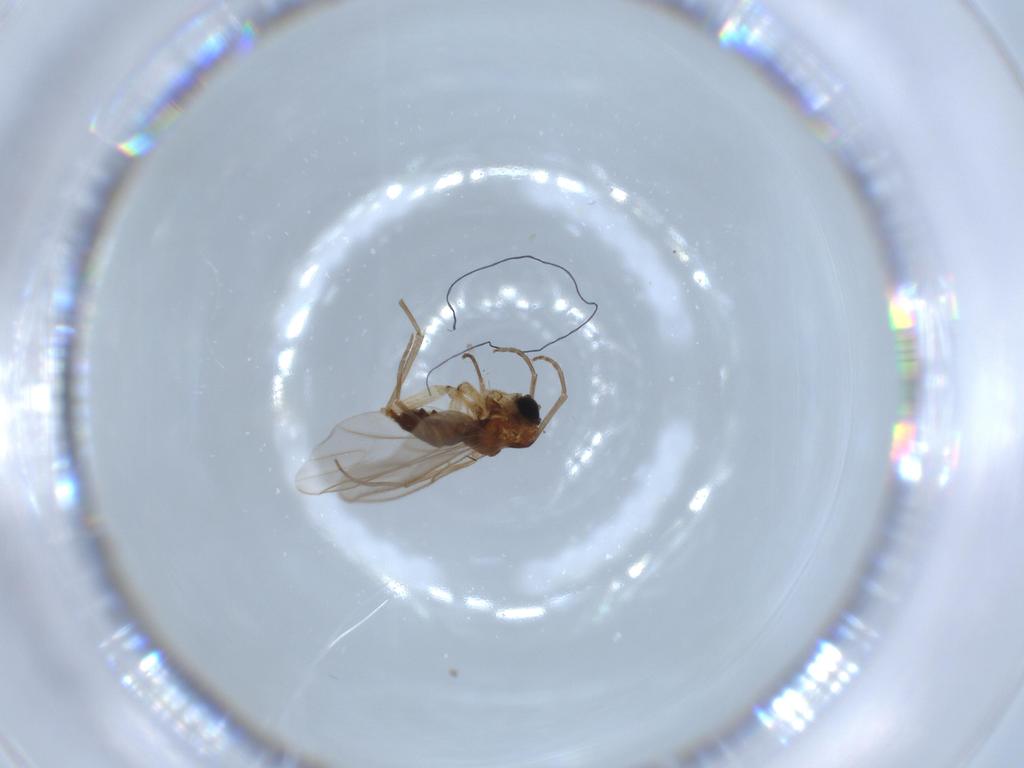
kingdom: Animalia
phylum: Arthropoda
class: Insecta
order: Diptera
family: Sciaridae
